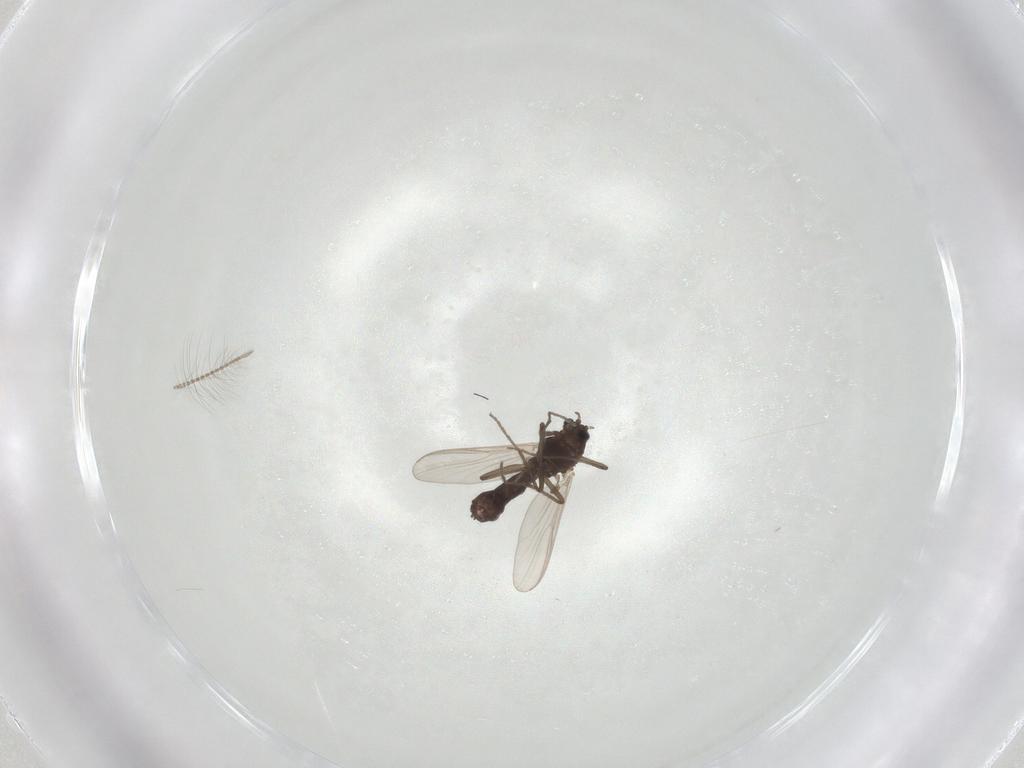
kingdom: Animalia
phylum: Arthropoda
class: Insecta
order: Diptera
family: Chironomidae
